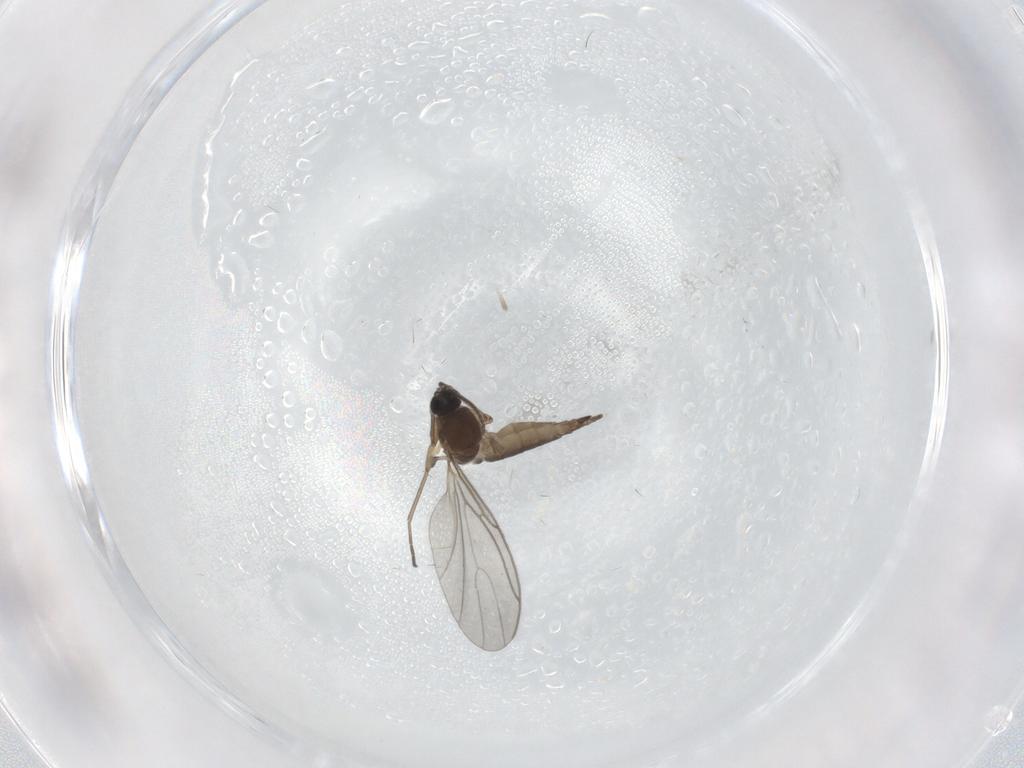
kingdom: Animalia
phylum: Arthropoda
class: Insecta
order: Diptera
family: Sciaridae
